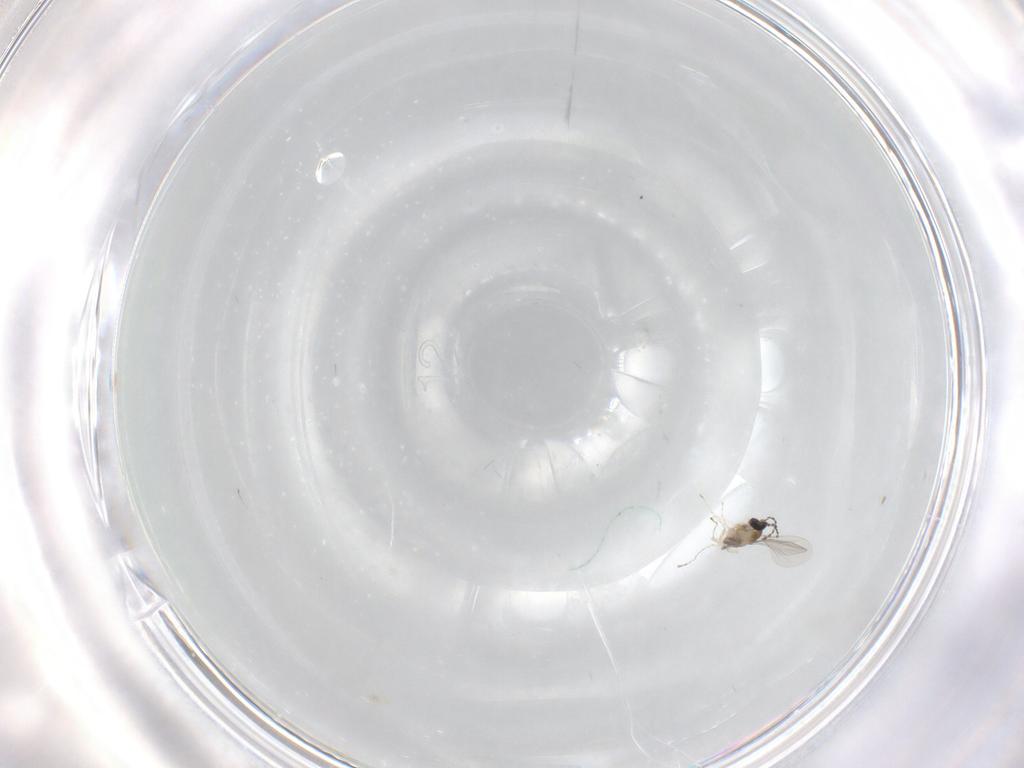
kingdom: Animalia
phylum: Arthropoda
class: Insecta
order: Diptera
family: Cecidomyiidae
